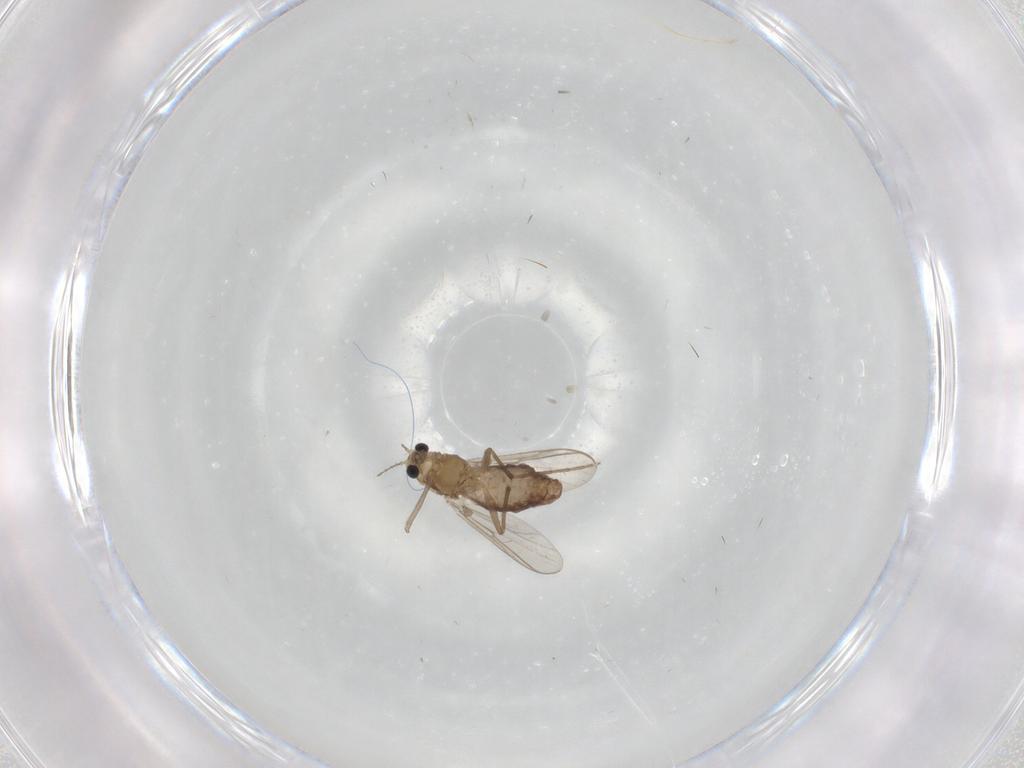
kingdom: Animalia
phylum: Arthropoda
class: Insecta
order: Diptera
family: Chironomidae
